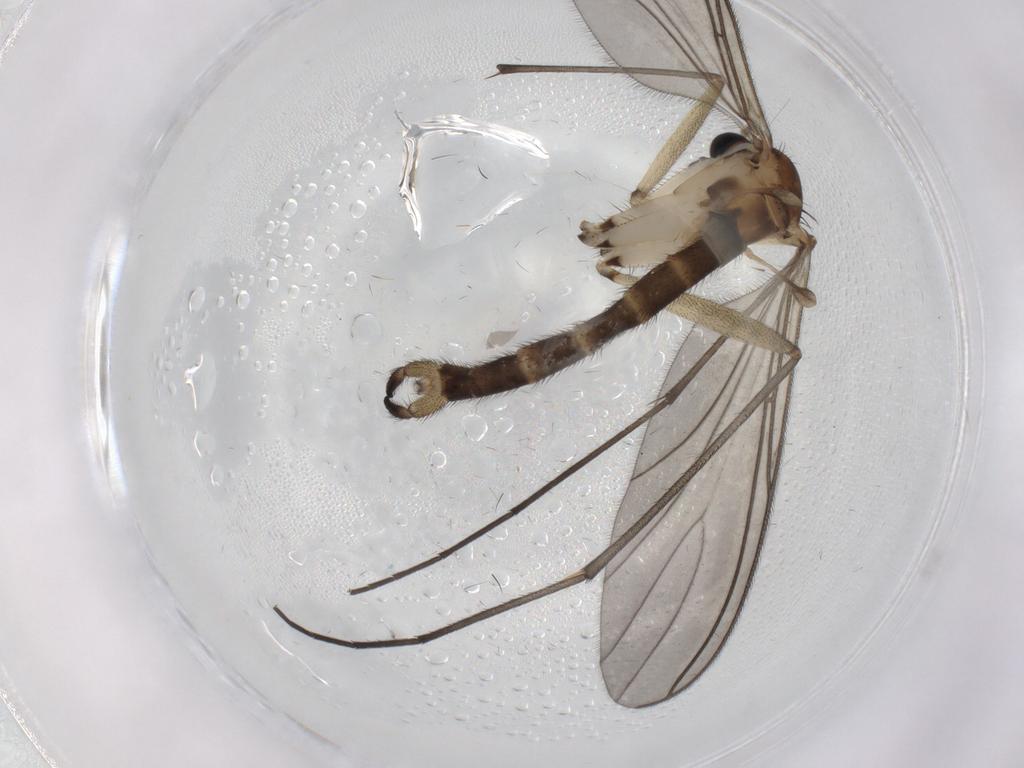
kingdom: Animalia
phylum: Arthropoda
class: Insecta
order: Diptera
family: Sciaridae
